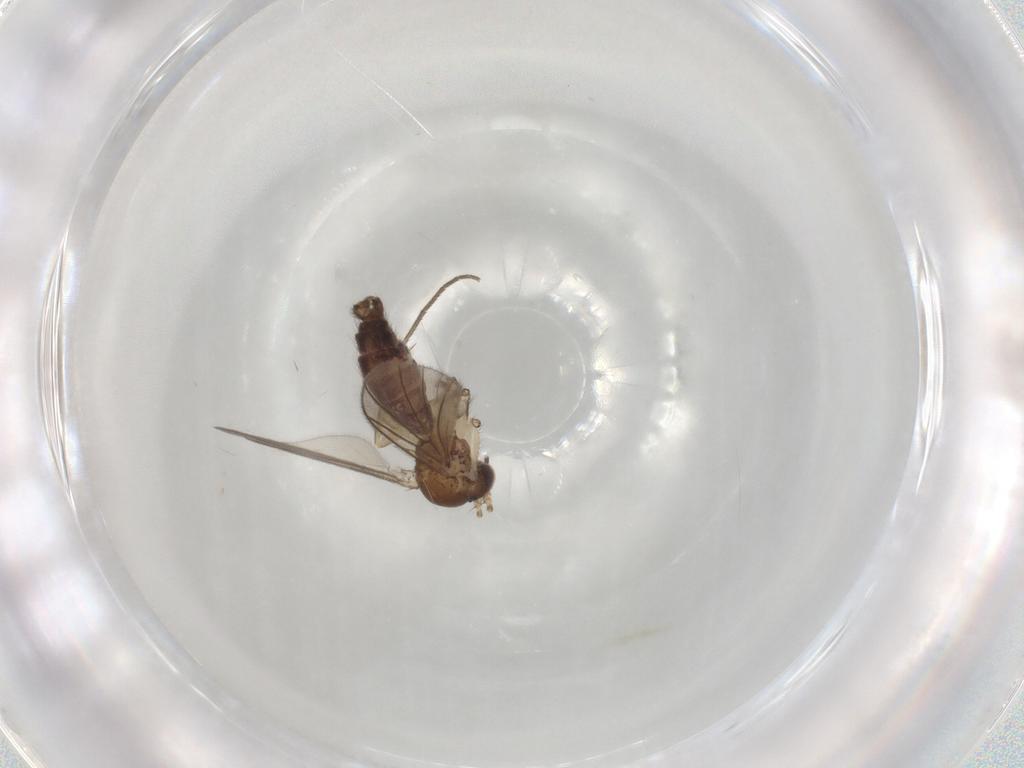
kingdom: Animalia
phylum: Arthropoda
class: Insecta
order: Diptera
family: Mycetophilidae
